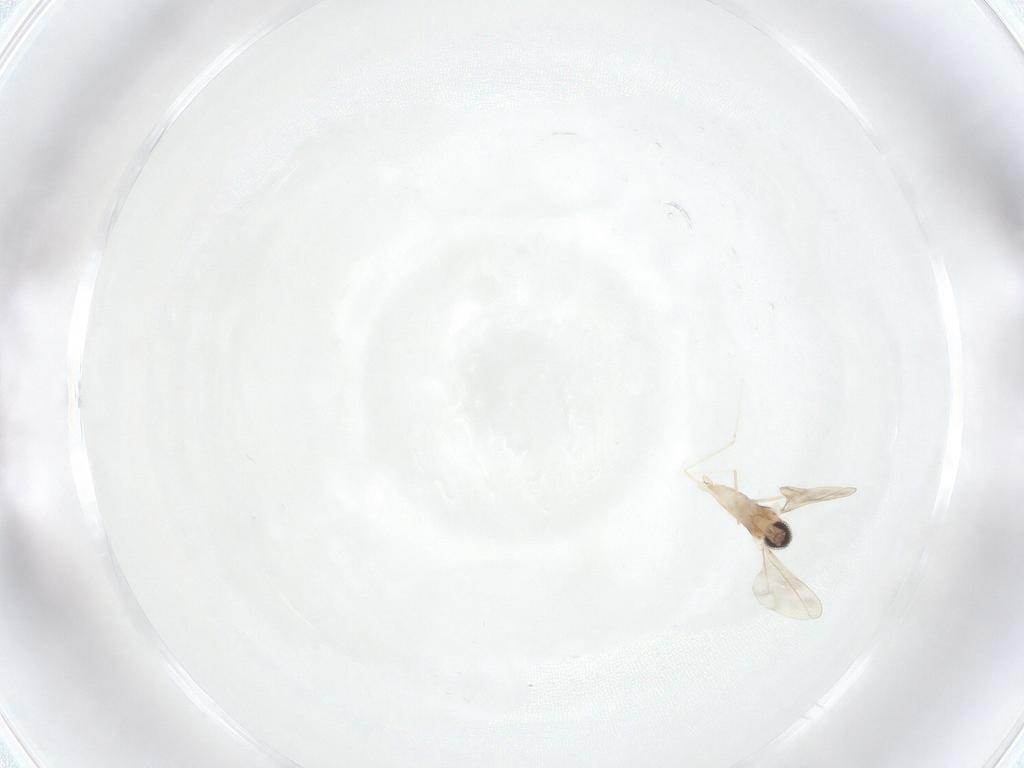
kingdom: Animalia
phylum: Arthropoda
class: Insecta
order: Diptera
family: Cecidomyiidae
